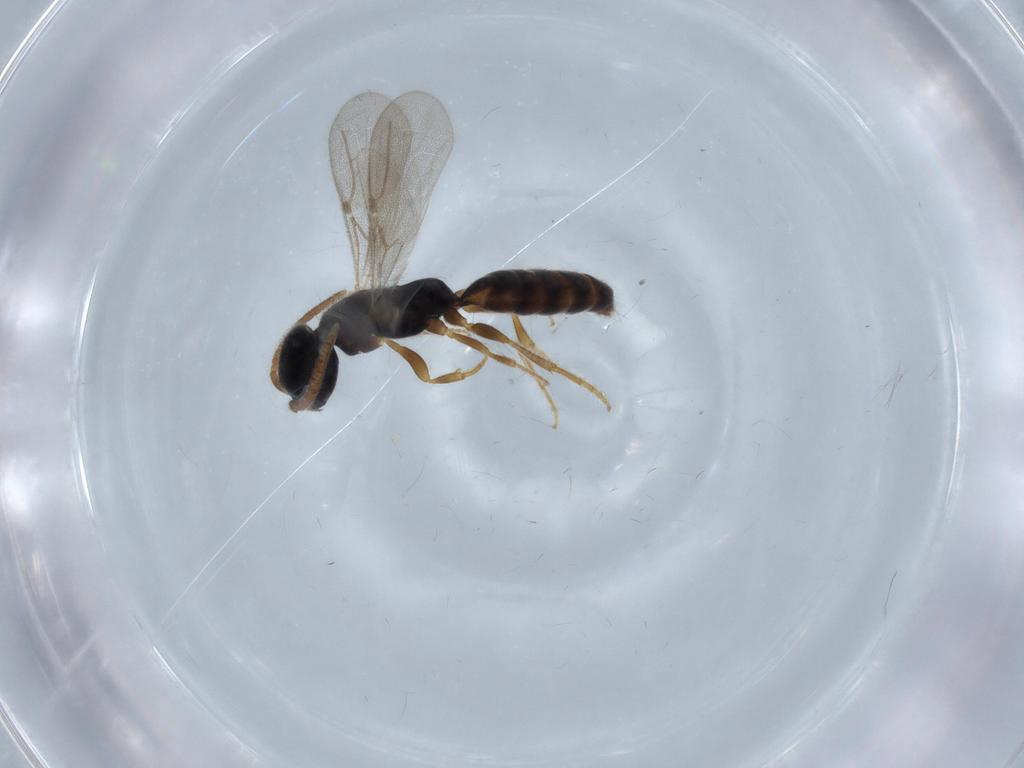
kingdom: Animalia
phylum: Arthropoda
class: Insecta
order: Hymenoptera
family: Bethylidae
